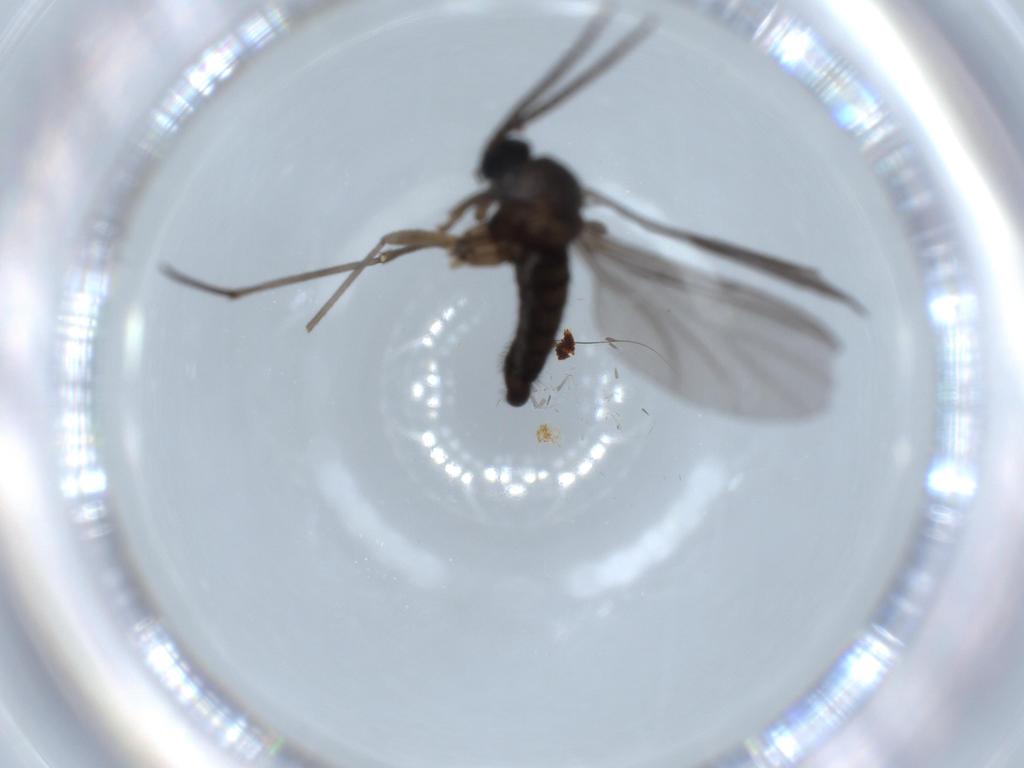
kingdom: Animalia
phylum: Arthropoda
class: Insecta
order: Diptera
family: Sciaridae
